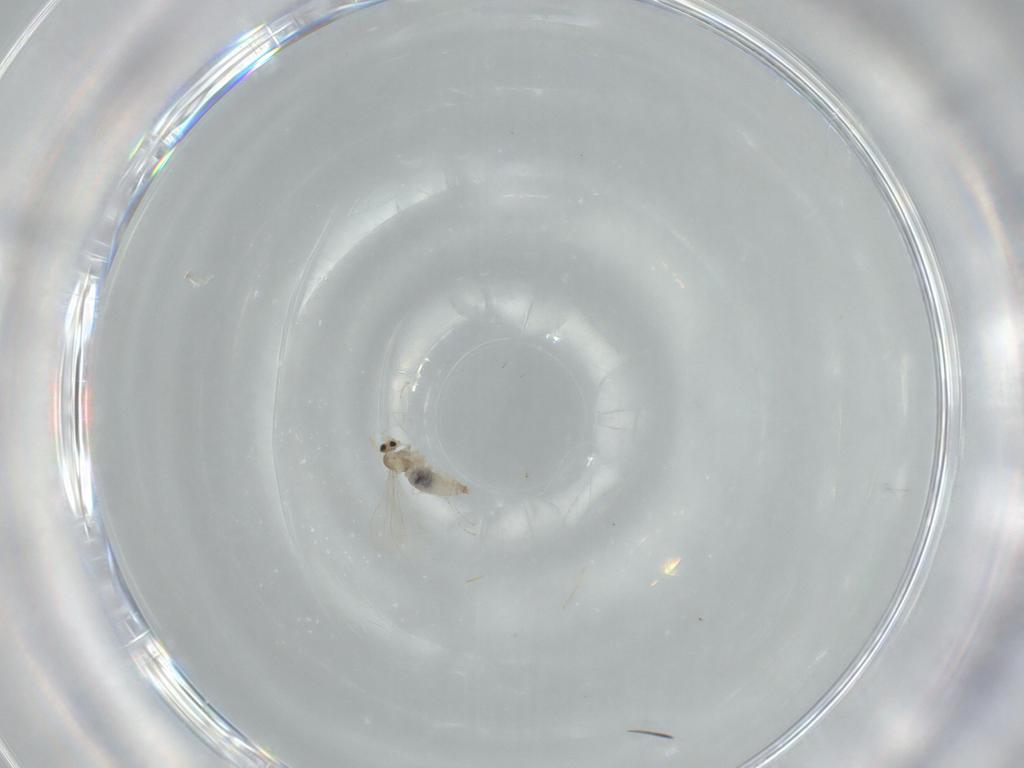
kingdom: Animalia
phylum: Arthropoda
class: Insecta
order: Diptera
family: Cecidomyiidae
